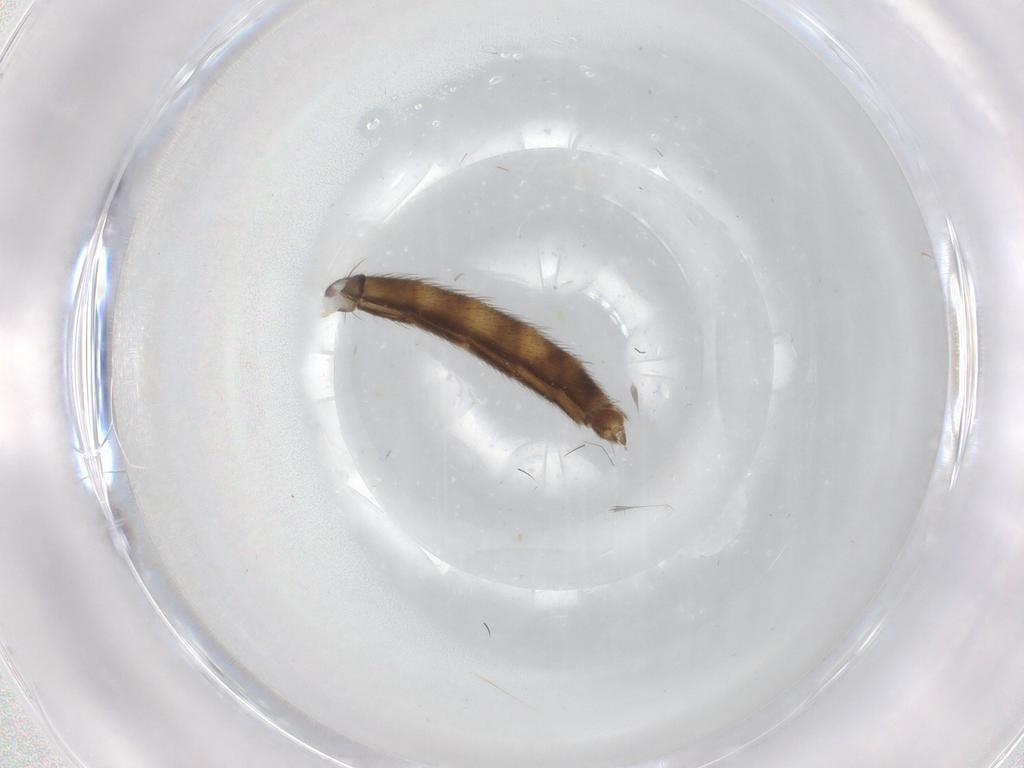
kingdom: Animalia
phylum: Arthropoda
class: Insecta
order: Diptera
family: Mycetophilidae
